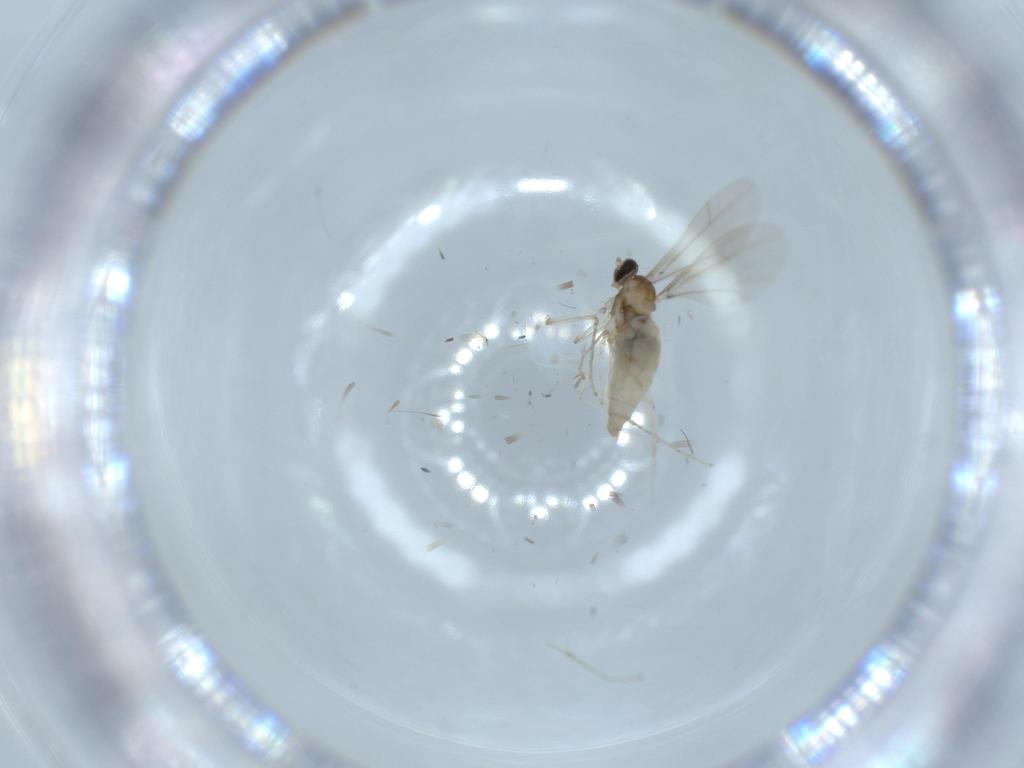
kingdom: Animalia
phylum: Arthropoda
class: Insecta
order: Diptera
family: Cecidomyiidae
